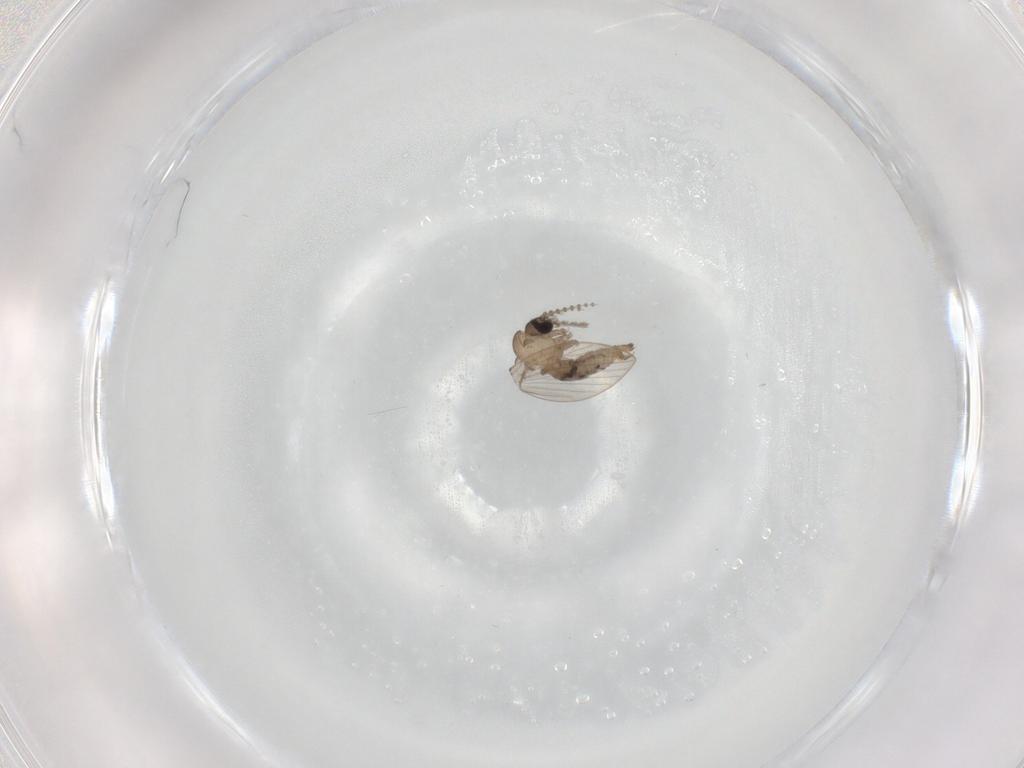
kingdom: Animalia
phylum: Arthropoda
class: Insecta
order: Diptera
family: Psychodidae
